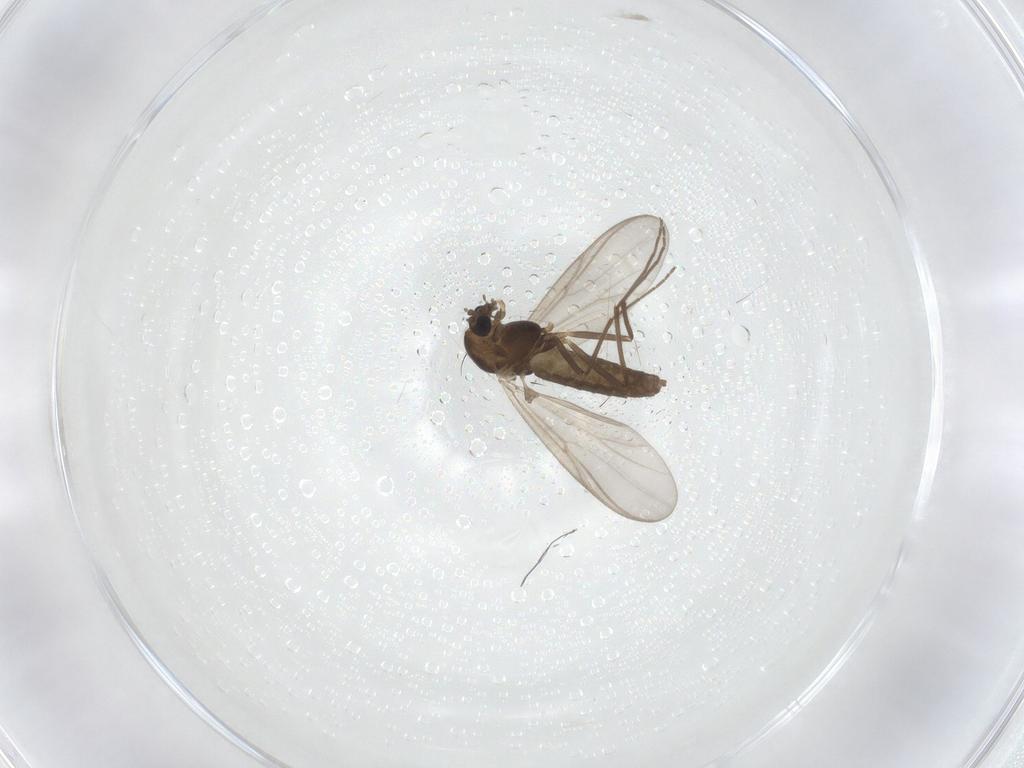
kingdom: Animalia
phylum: Arthropoda
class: Insecta
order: Diptera
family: Chironomidae
